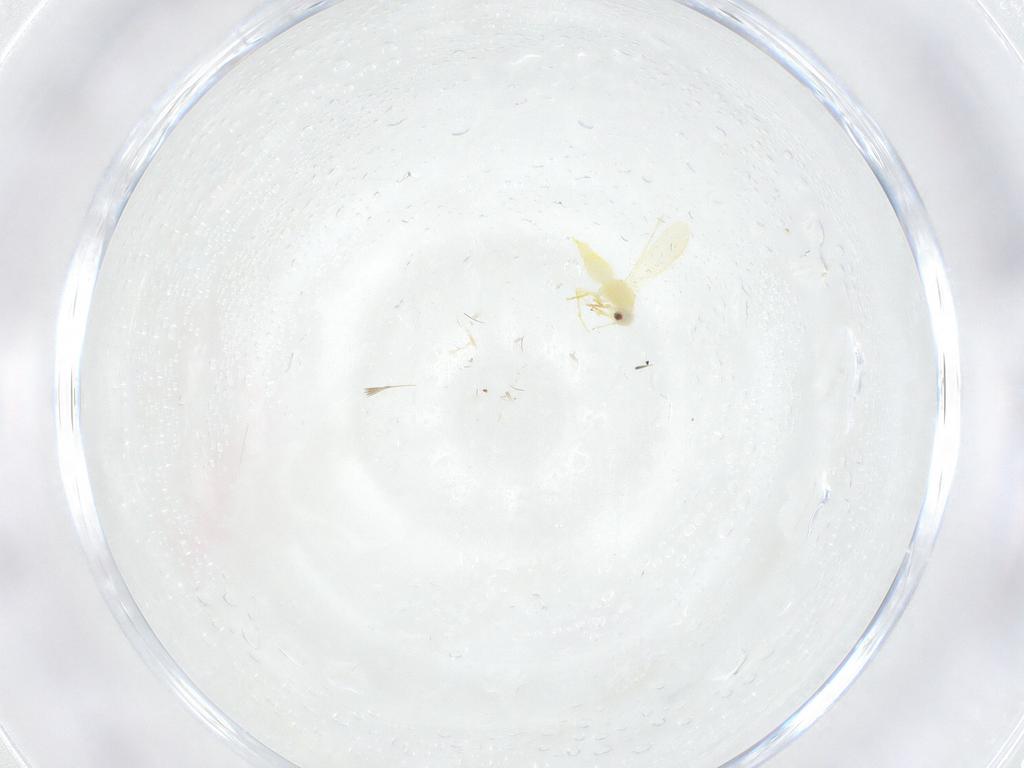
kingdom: Animalia
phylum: Arthropoda
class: Insecta
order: Hemiptera
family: Aleyrodidae
